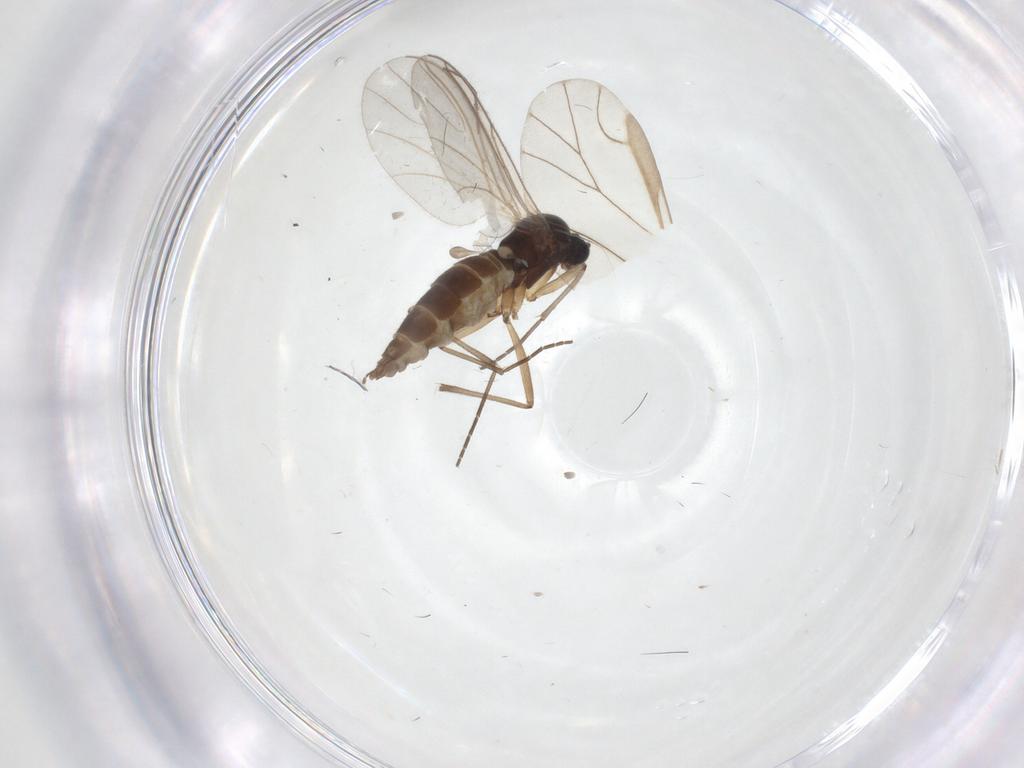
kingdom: Animalia
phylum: Arthropoda
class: Insecta
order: Diptera
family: Sciaridae
